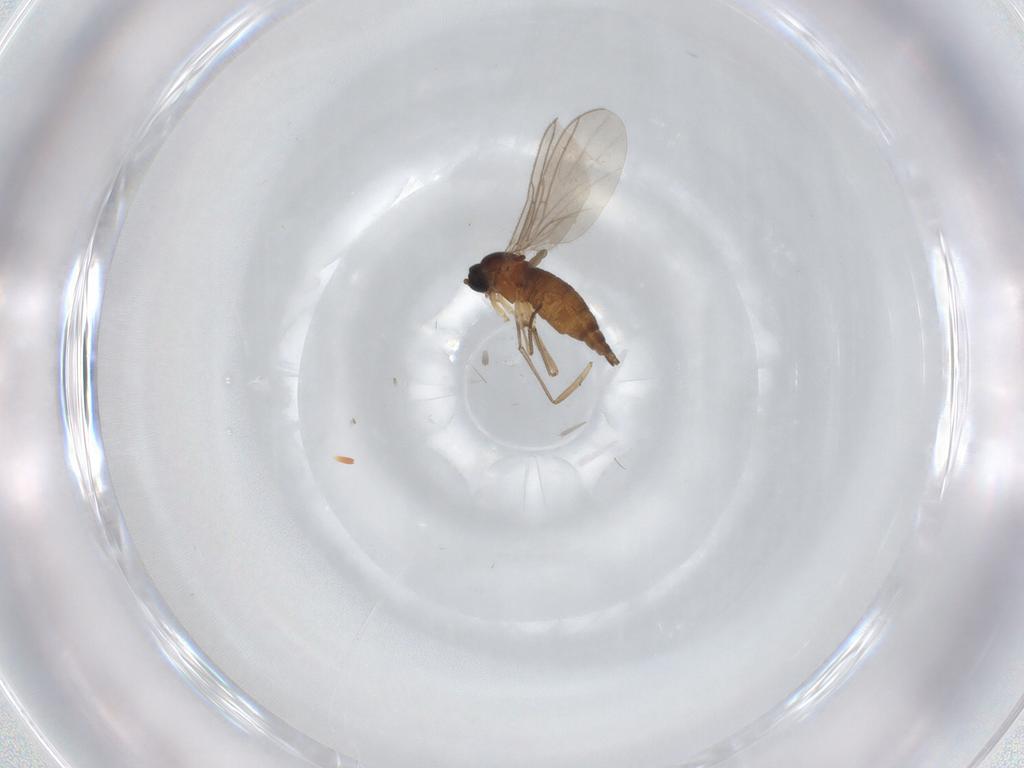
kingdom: Animalia
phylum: Arthropoda
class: Insecta
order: Diptera
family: Sciaridae
